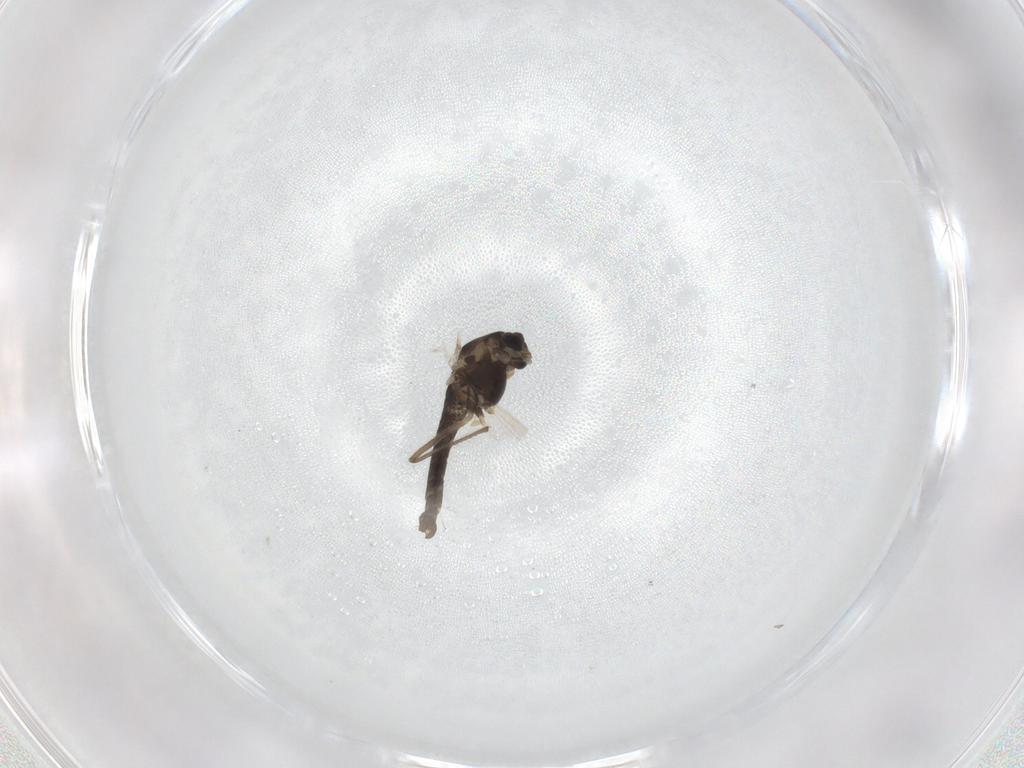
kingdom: Animalia
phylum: Arthropoda
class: Insecta
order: Diptera
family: Chironomidae
